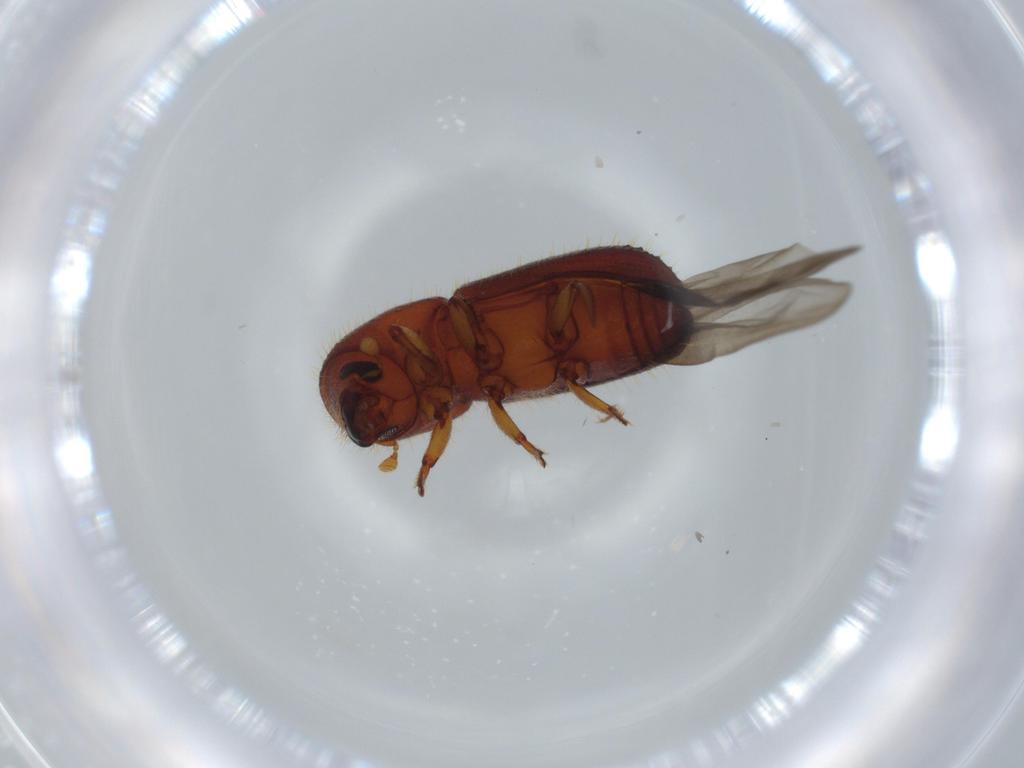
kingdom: Animalia
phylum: Arthropoda
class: Insecta
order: Coleoptera
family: Curculionidae
